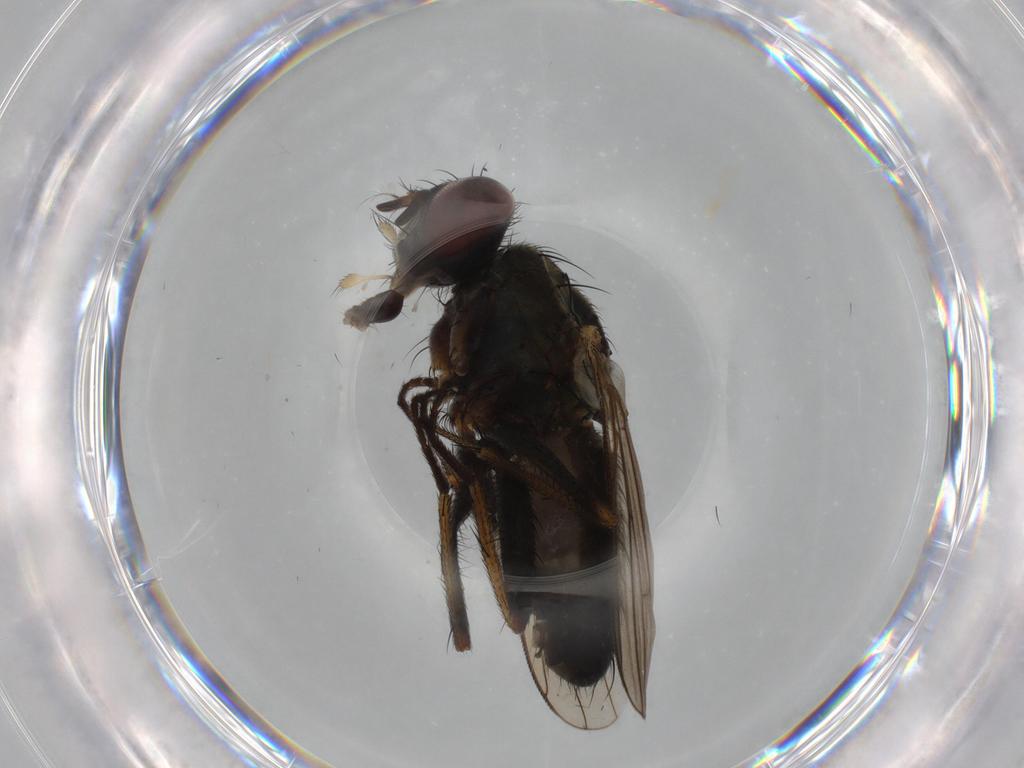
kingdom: Animalia
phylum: Arthropoda
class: Insecta
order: Diptera
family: Muscidae
